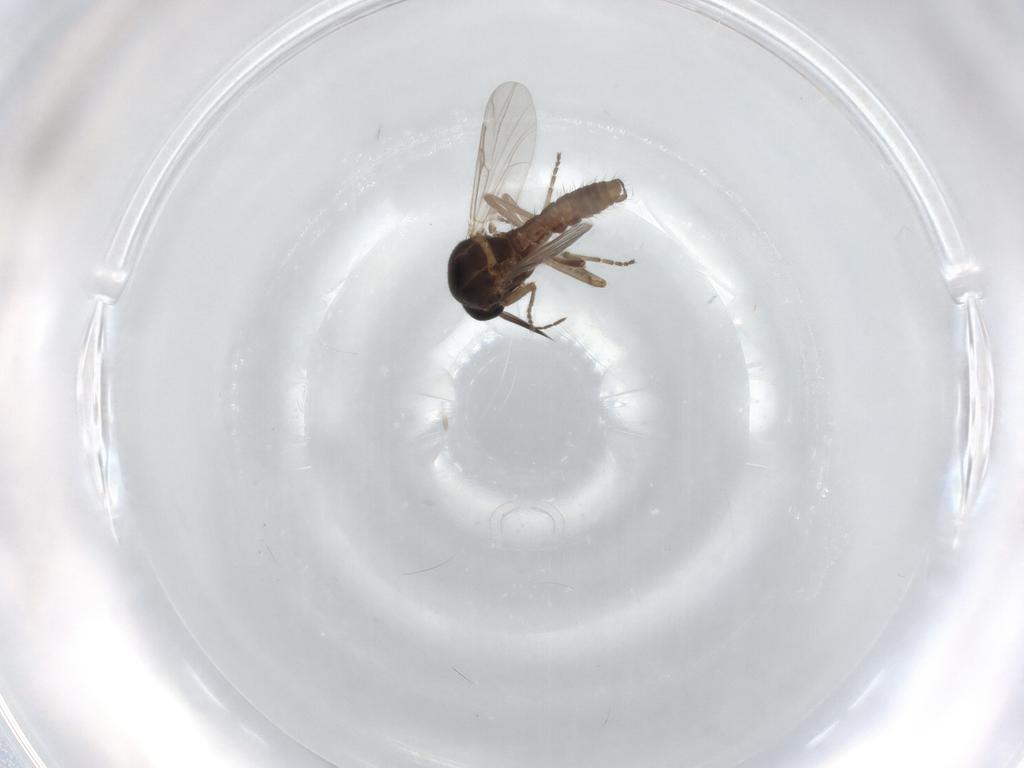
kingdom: Animalia
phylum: Arthropoda
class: Insecta
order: Diptera
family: Ceratopogonidae
